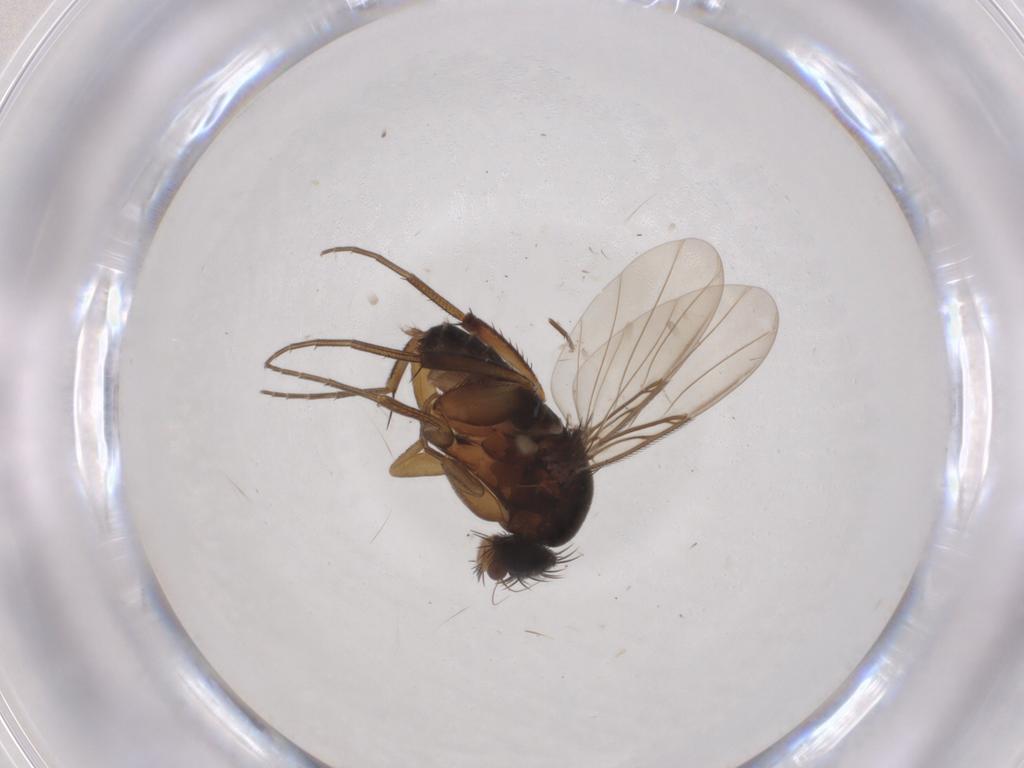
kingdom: Animalia
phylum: Arthropoda
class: Insecta
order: Diptera
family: Phoridae
